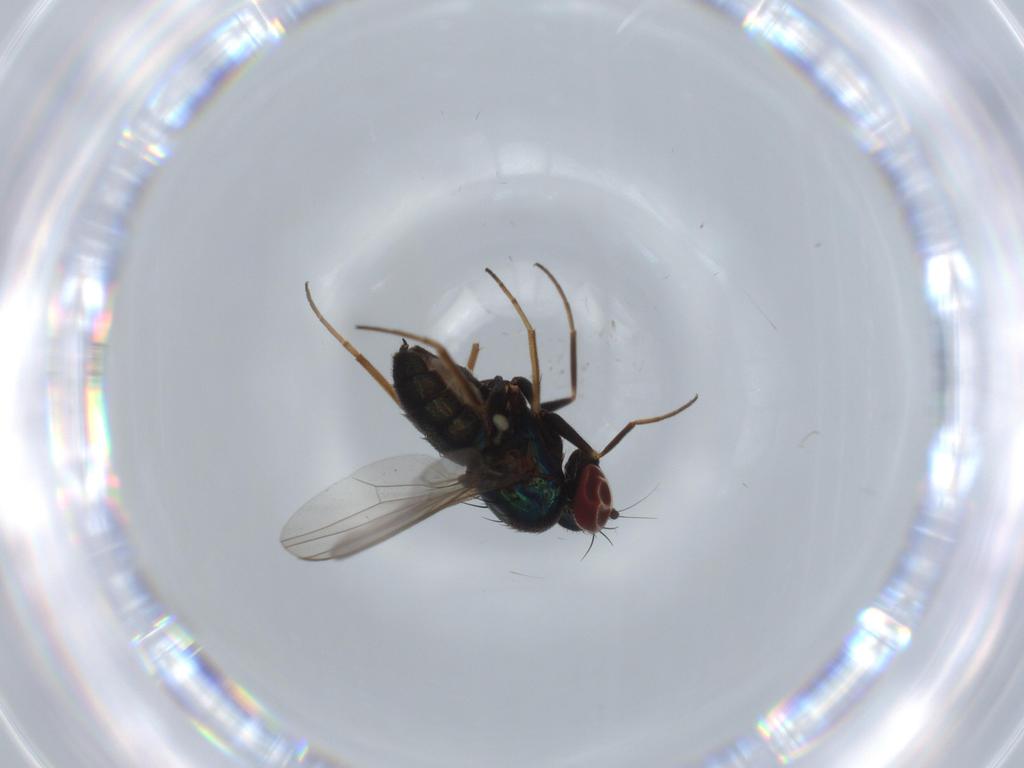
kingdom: Animalia
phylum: Arthropoda
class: Insecta
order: Diptera
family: Dolichopodidae
